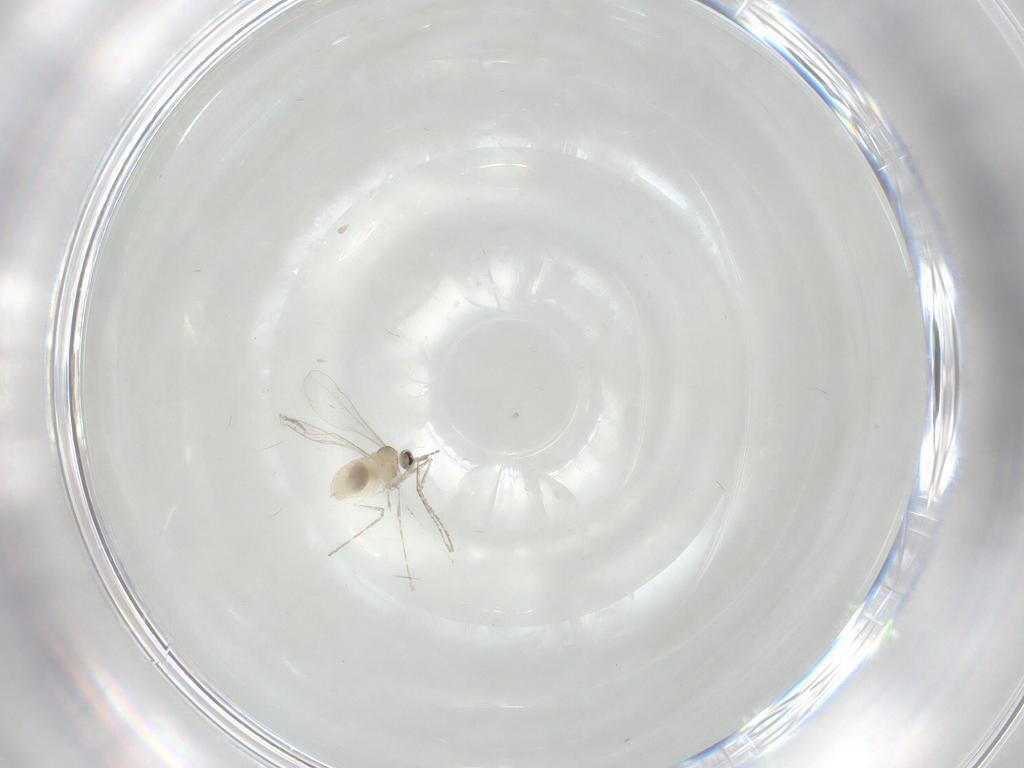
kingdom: Animalia
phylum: Arthropoda
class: Insecta
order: Diptera
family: Cecidomyiidae
